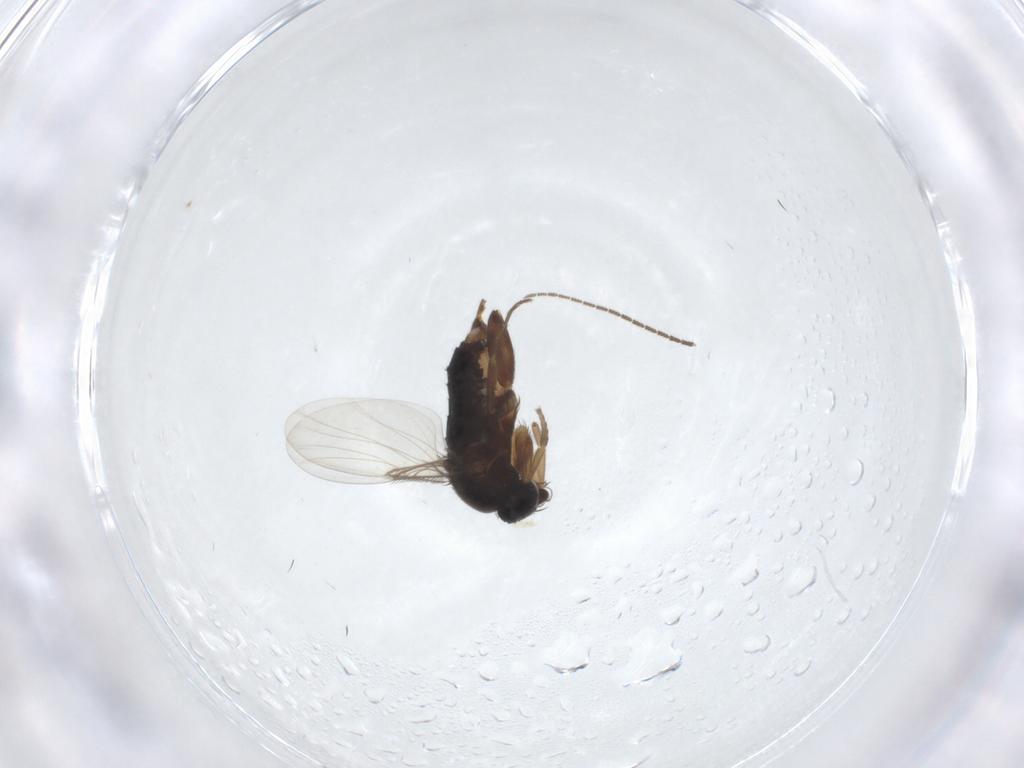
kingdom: Animalia
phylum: Arthropoda
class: Insecta
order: Diptera
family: Phoridae
